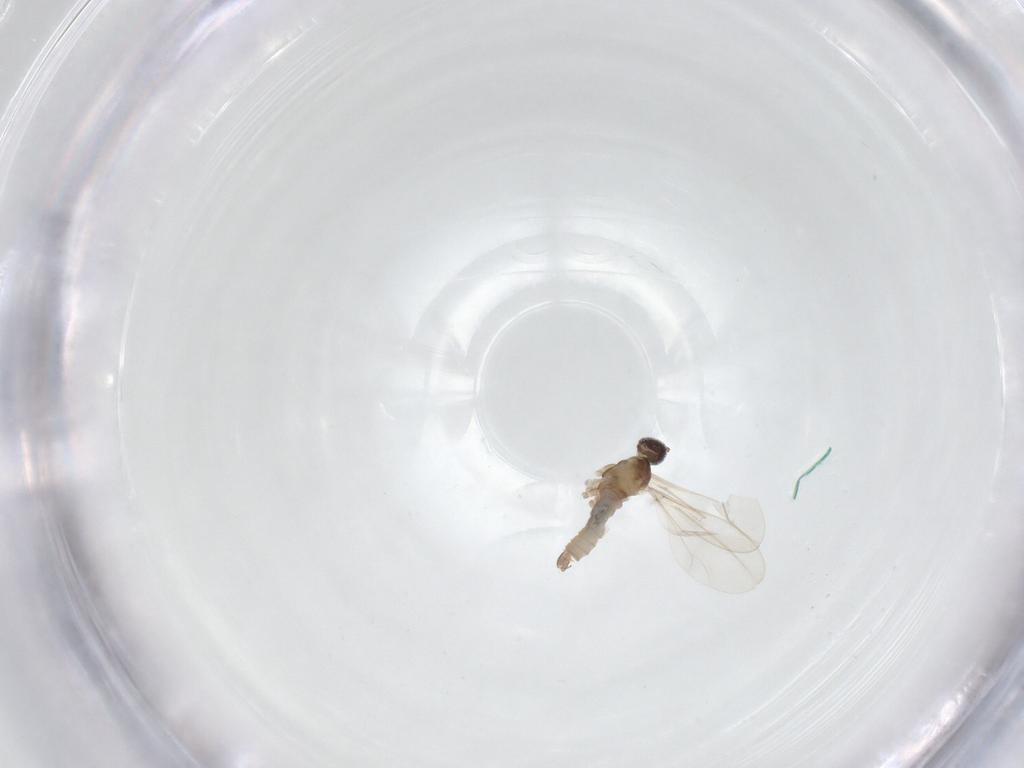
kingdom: Animalia
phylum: Arthropoda
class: Insecta
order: Diptera
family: Cecidomyiidae
